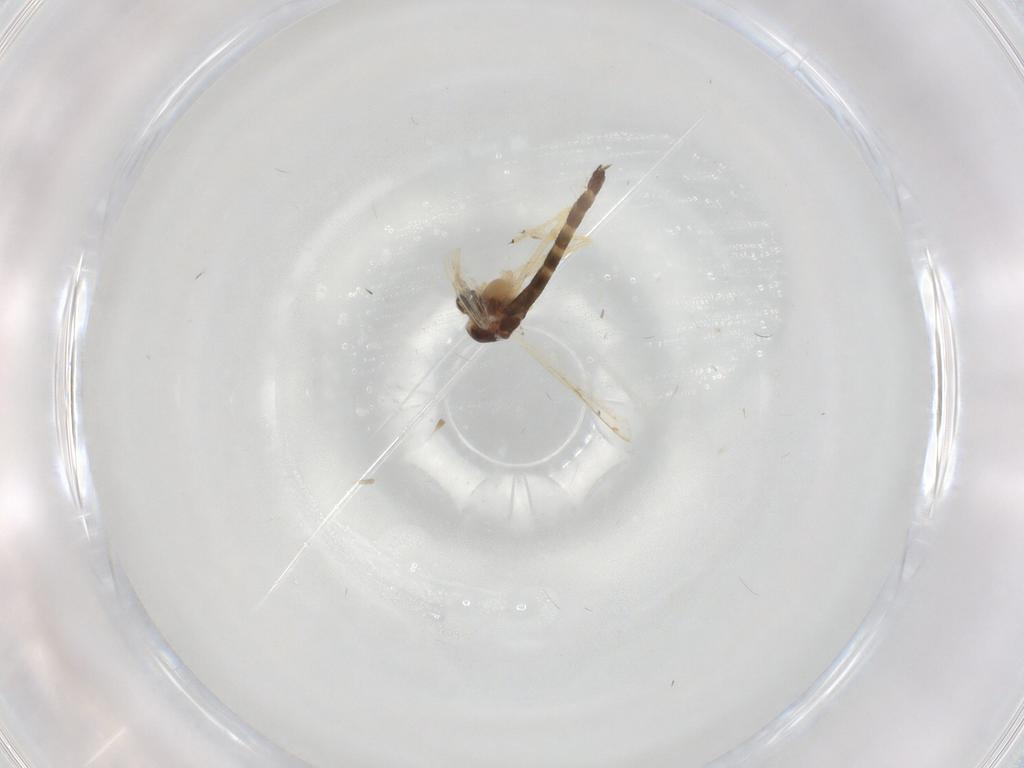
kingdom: Animalia
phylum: Arthropoda
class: Insecta
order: Diptera
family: Chironomidae
